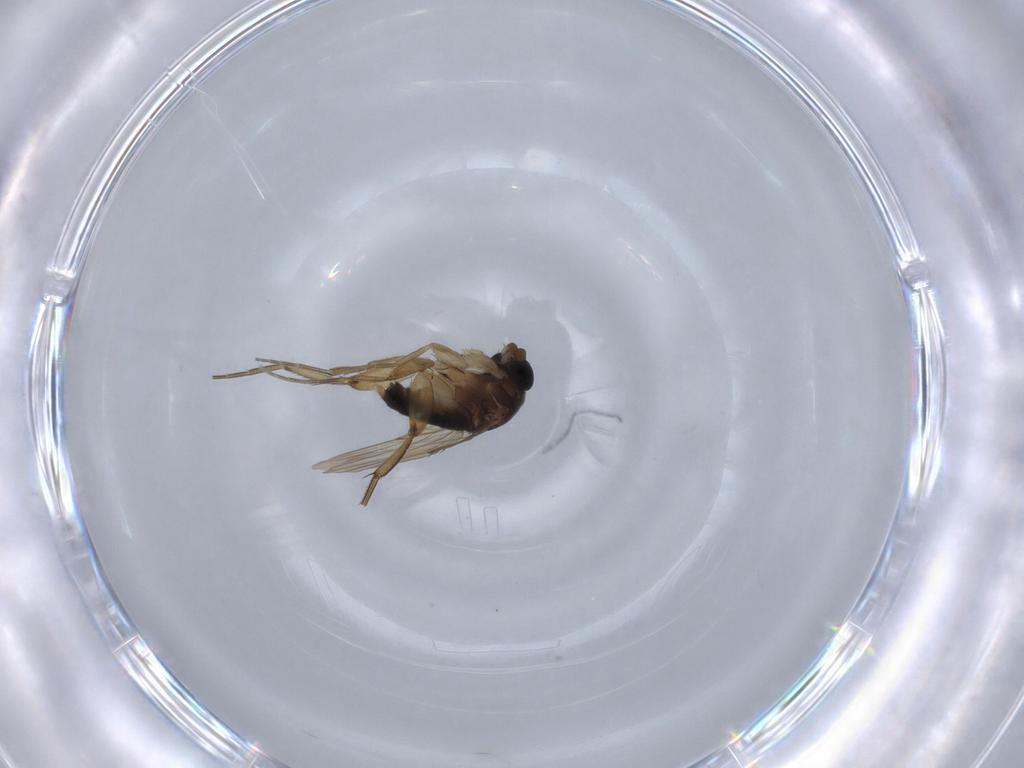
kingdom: Animalia
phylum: Arthropoda
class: Insecta
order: Diptera
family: Phoridae
